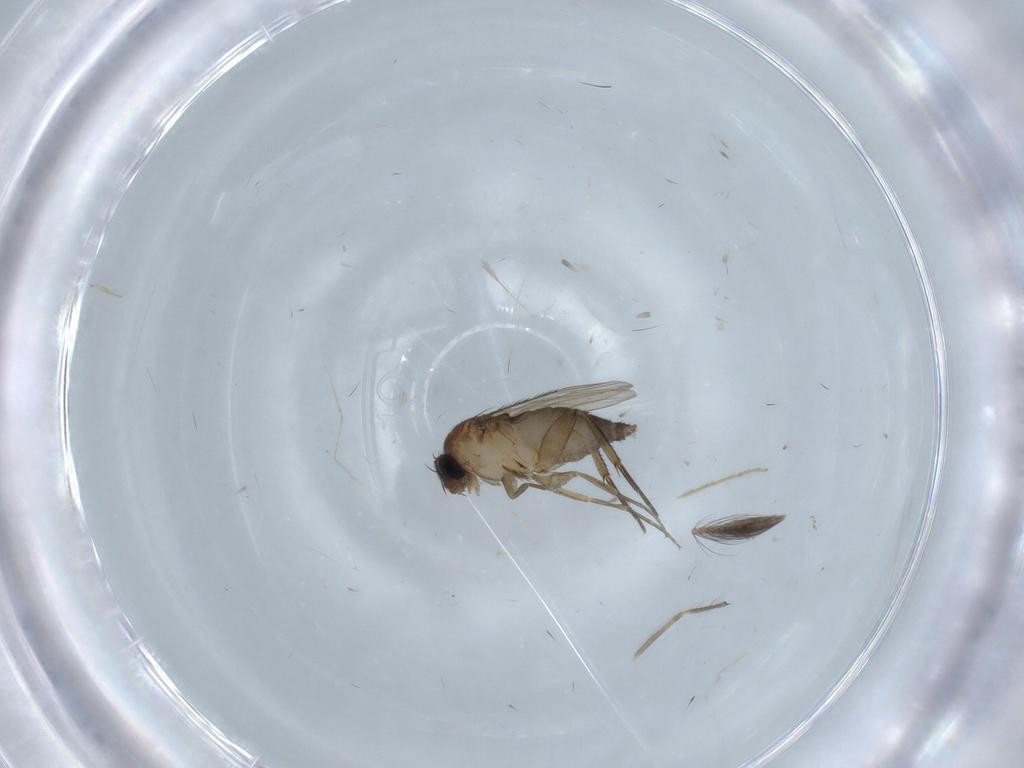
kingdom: Animalia
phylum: Arthropoda
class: Insecta
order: Diptera
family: Phoridae
